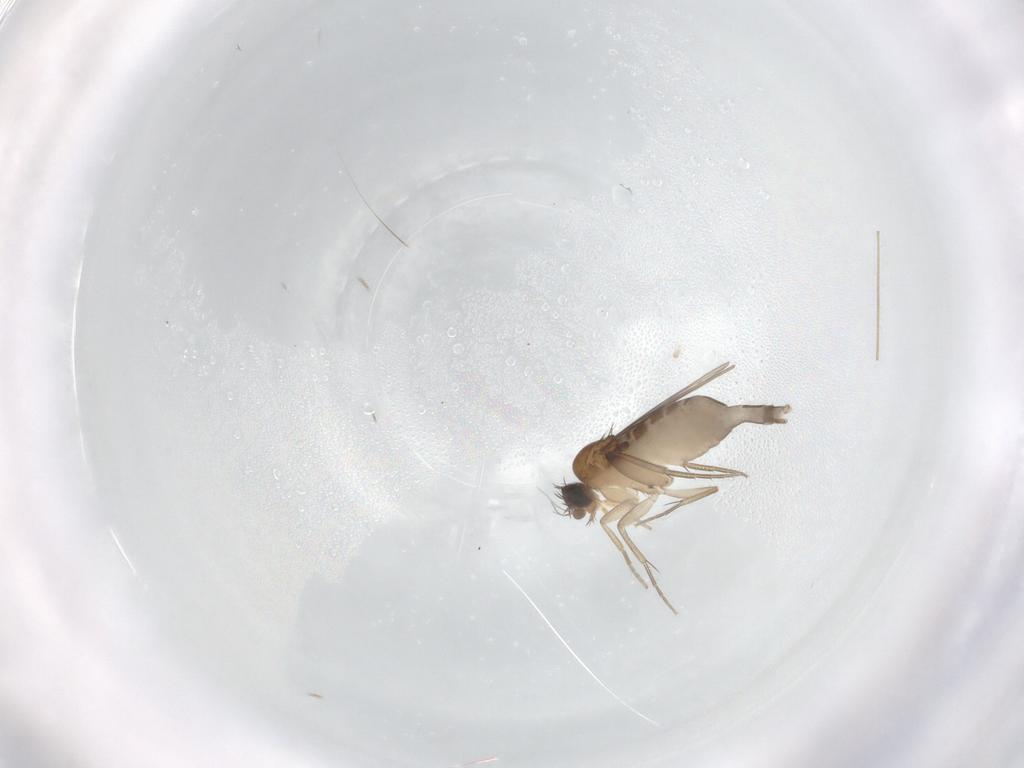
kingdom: Animalia
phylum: Arthropoda
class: Insecta
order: Diptera
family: Phoridae
